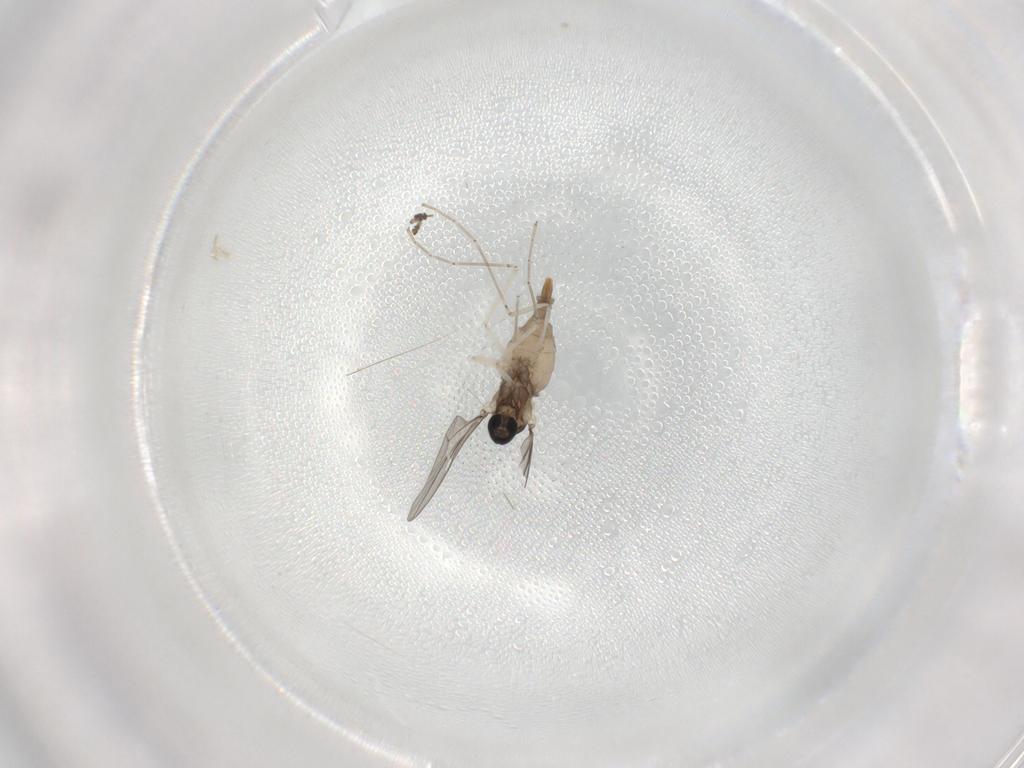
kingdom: Animalia
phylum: Arthropoda
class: Insecta
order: Diptera
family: Cecidomyiidae
